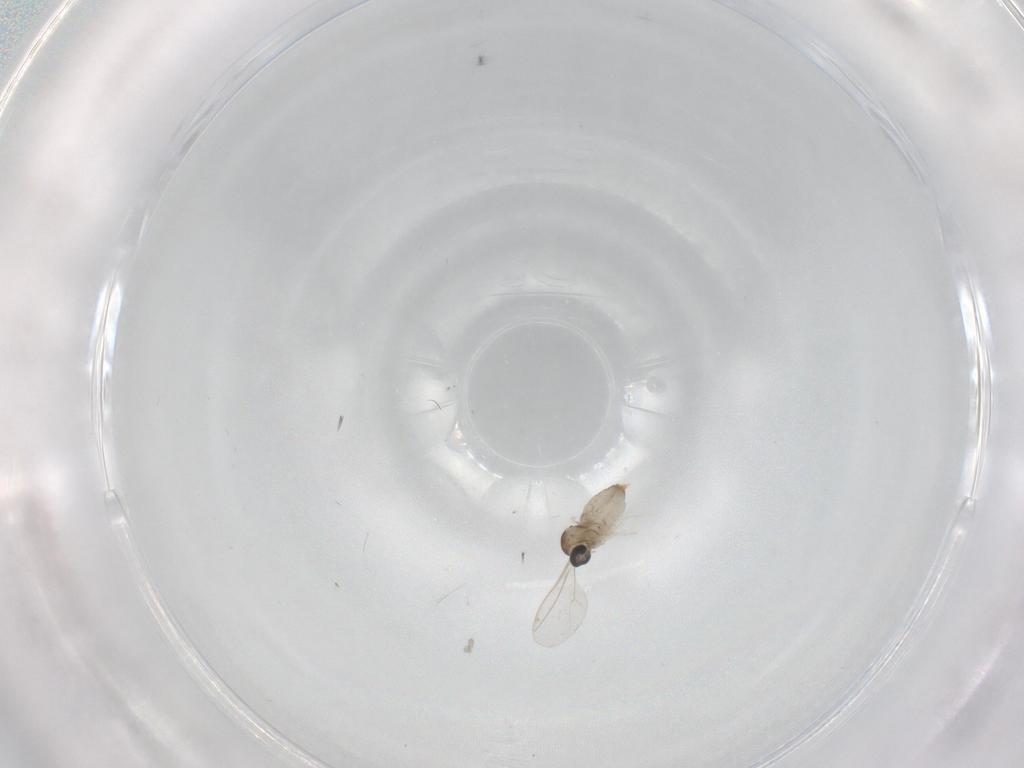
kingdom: Animalia
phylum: Arthropoda
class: Insecta
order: Diptera
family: Cecidomyiidae
